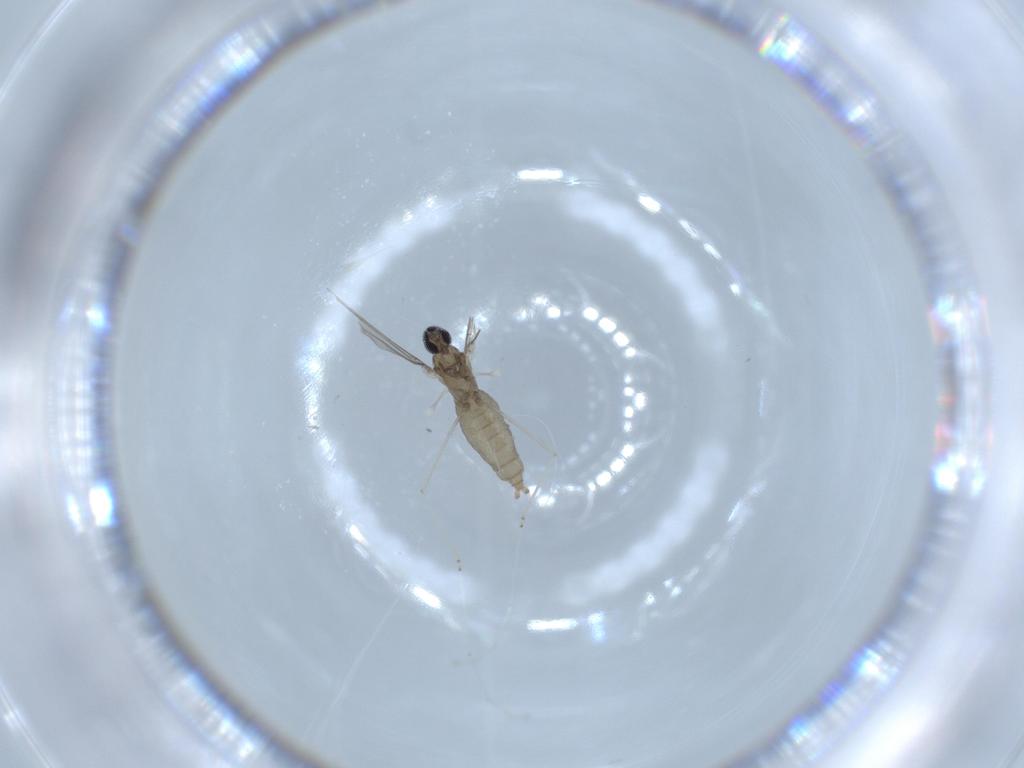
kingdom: Animalia
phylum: Arthropoda
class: Insecta
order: Diptera
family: Cecidomyiidae
